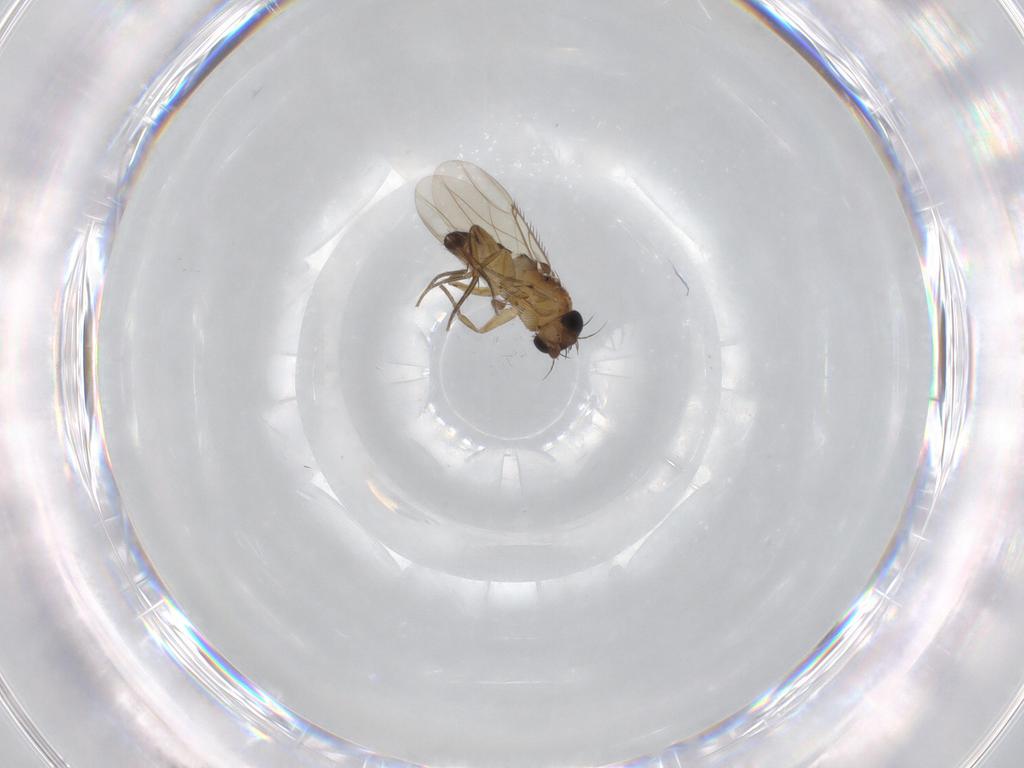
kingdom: Animalia
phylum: Arthropoda
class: Insecta
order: Diptera
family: Phoridae
